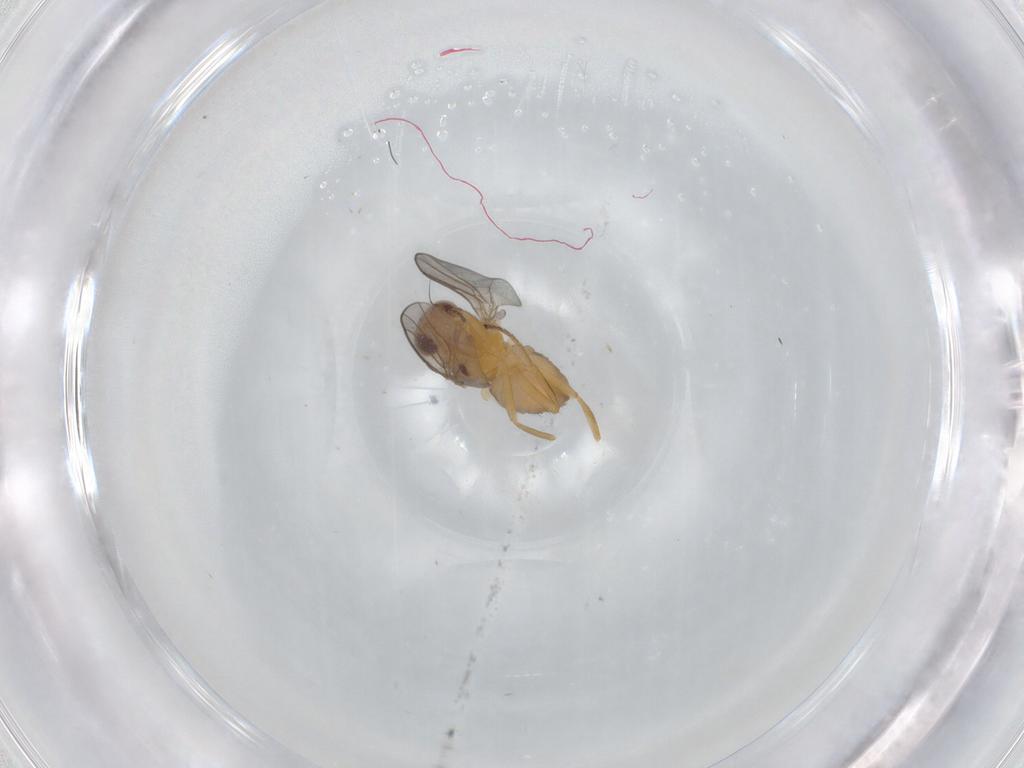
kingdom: Animalia
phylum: Arthropoda
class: Insecta
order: Diptera
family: Chloropidae
